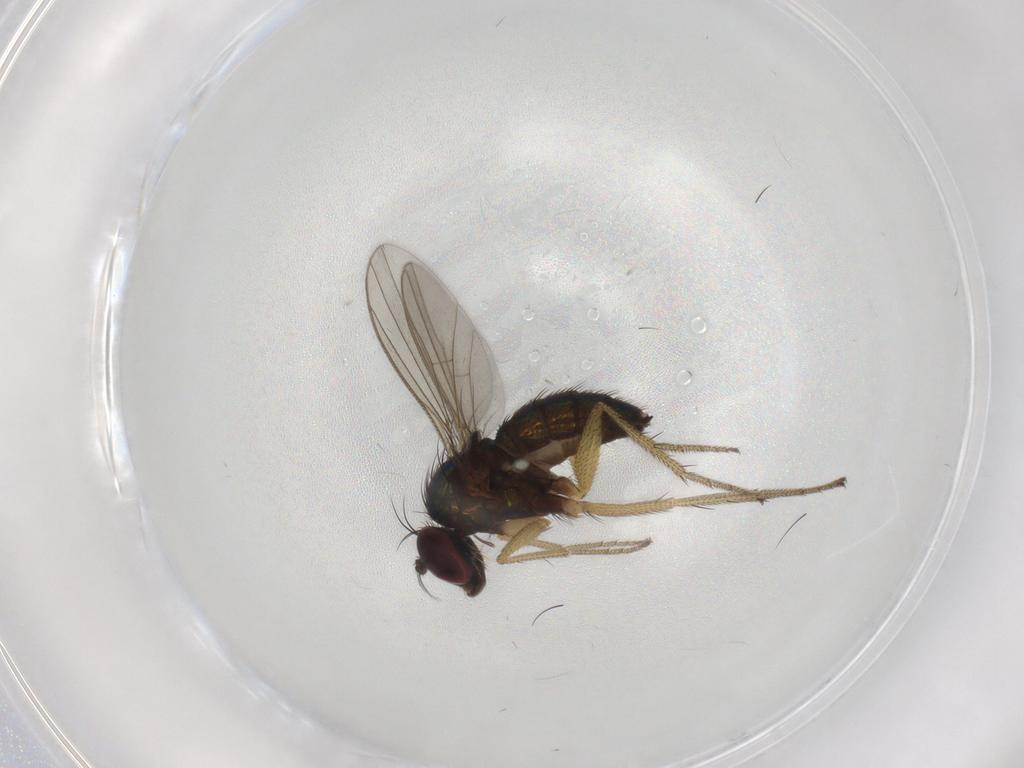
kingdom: Animalia
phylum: Arthropoda
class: Insecta
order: Diptera
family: Dolichopodidae
